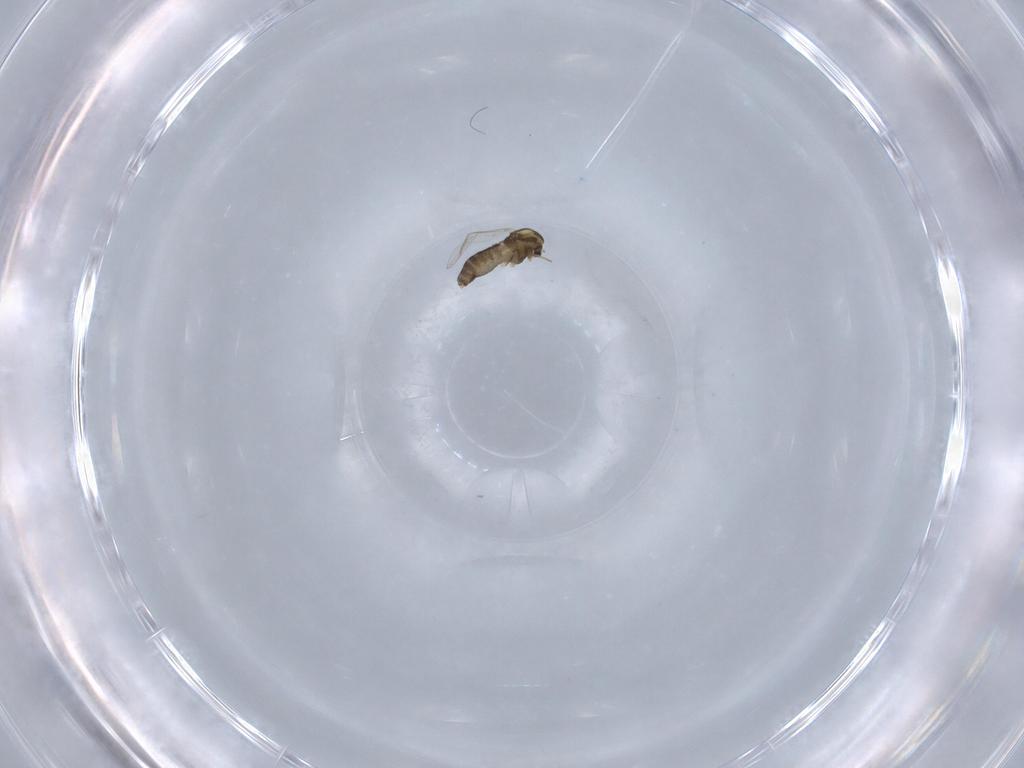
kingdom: Animalia
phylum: Arthropoda
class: Insecta
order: Diptera
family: Chironomidae
